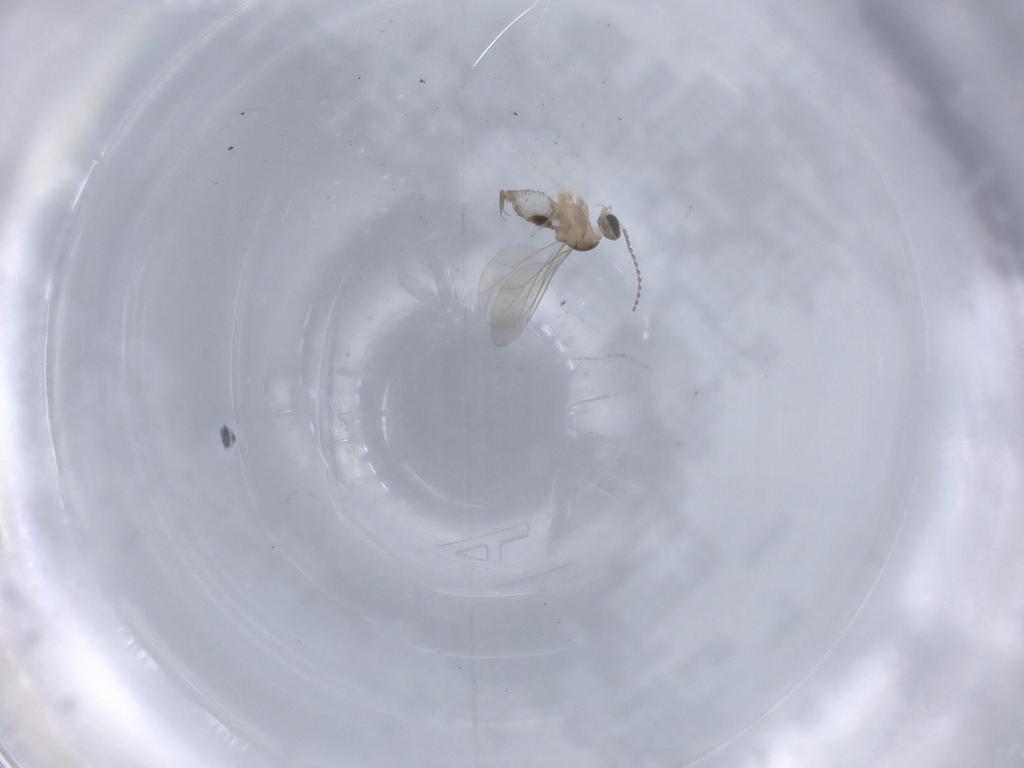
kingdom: Animalia
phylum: Arthropoda
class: Insecta
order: Diptera
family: Cecidomyiidae
